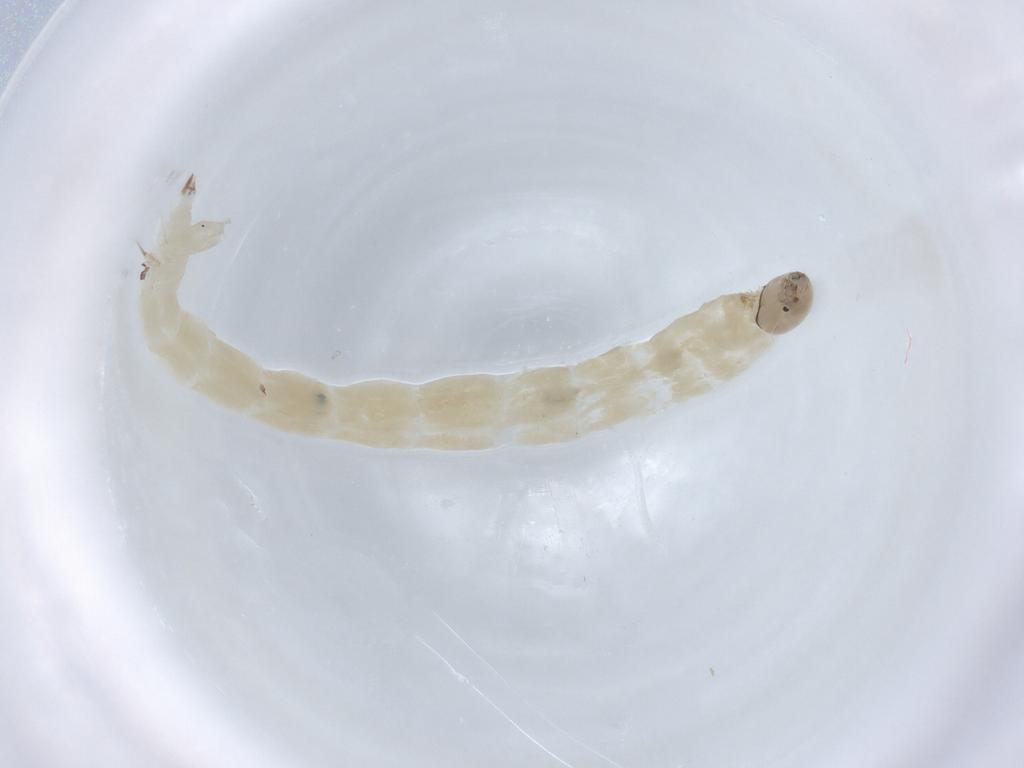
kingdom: Animalia
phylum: Arthropoda
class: Insecta
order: Diptera
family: Chironomidae
